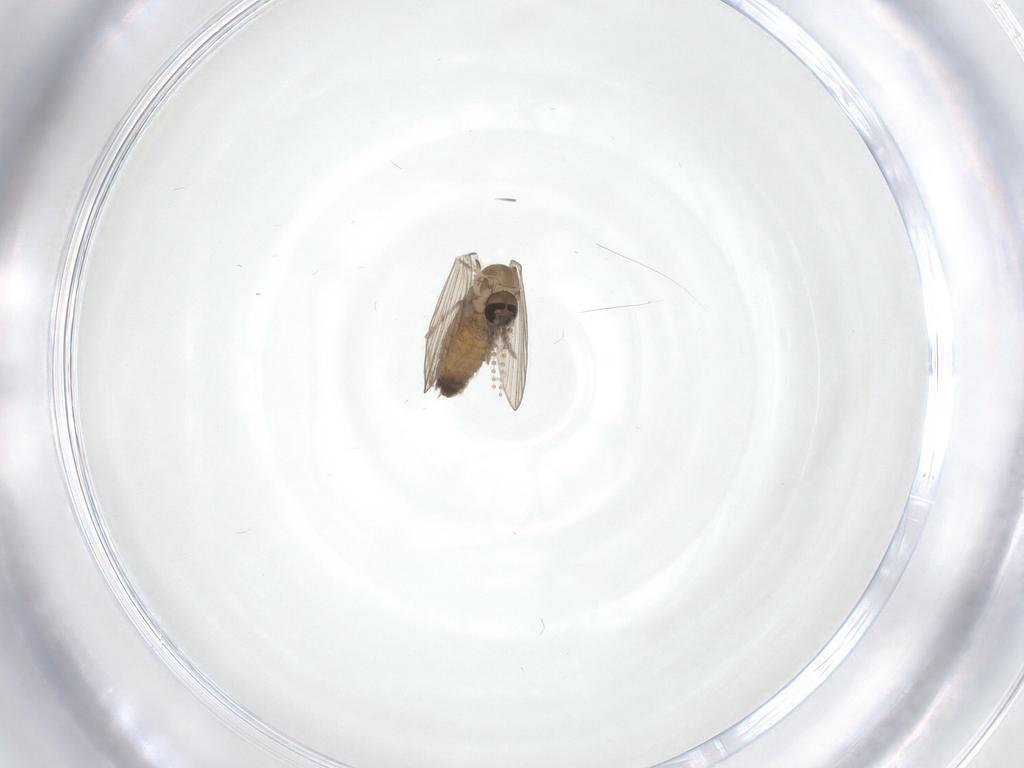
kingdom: Animalia
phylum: Arthropoda
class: Insecta
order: Diptera
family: Psychodidae
